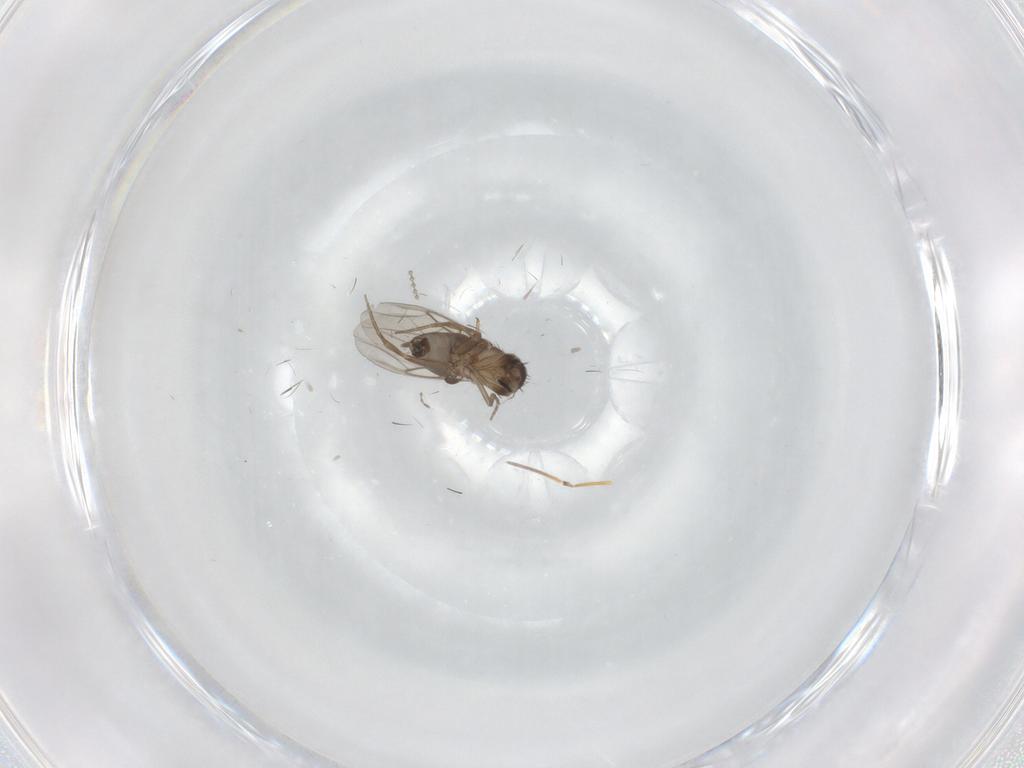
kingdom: Animalia
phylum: Arthropoda
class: Insecta
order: Diptera
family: Phoridae
